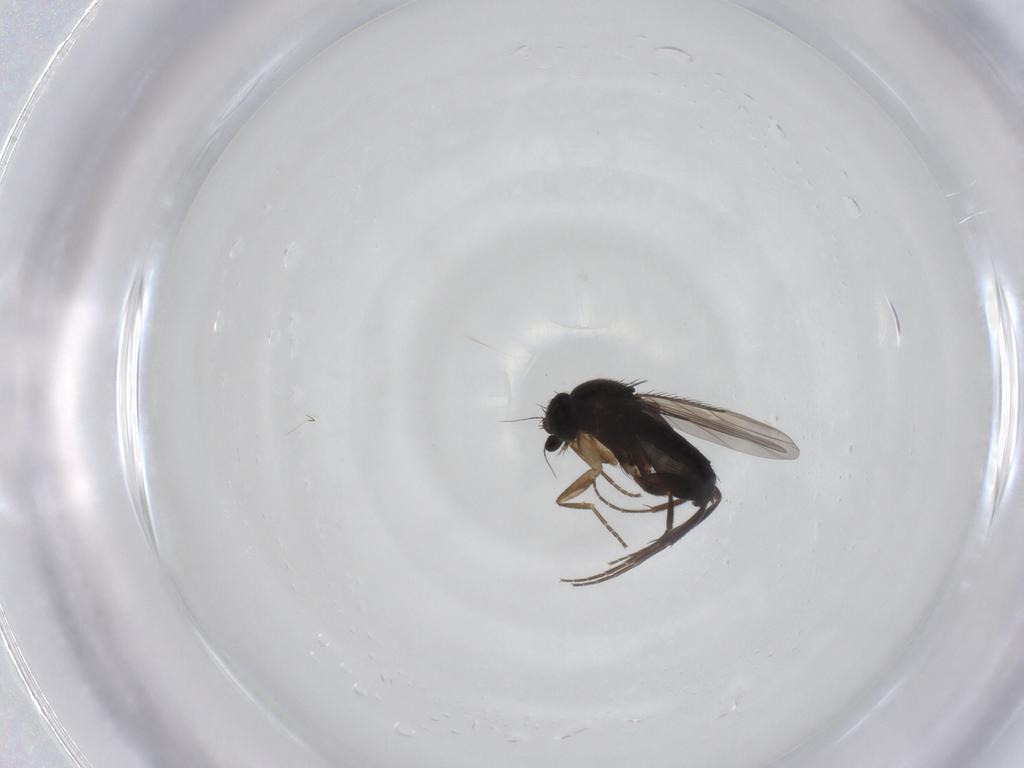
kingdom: Animalia
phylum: Arthropoda
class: Insecta
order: Diptera
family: Phoridae
